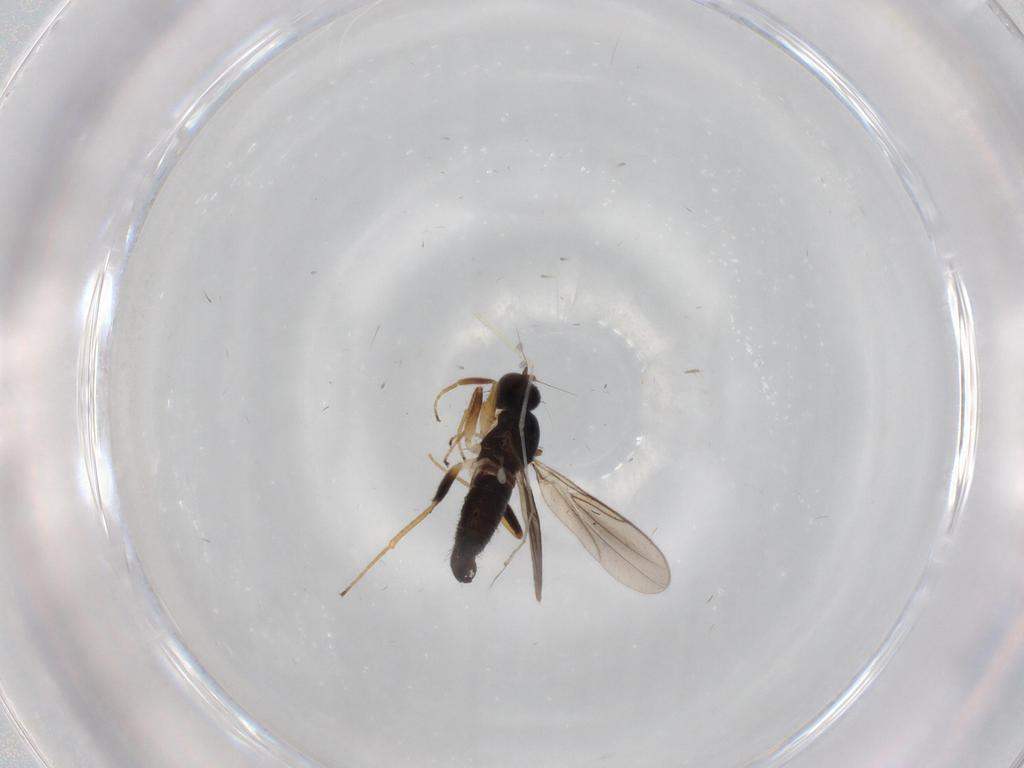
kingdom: Animalia
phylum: Arthropoda
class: Insecta
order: Diptera
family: Hybotidae
